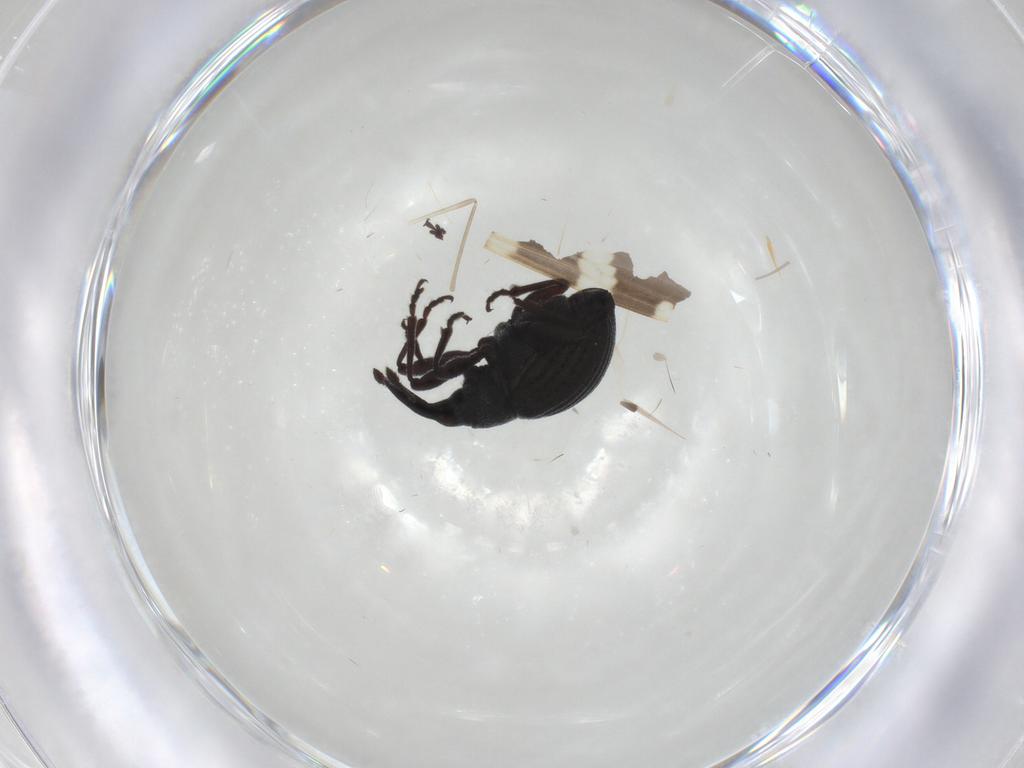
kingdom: Animalia
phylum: Arthropoda
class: Insecta
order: Coleoptera
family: Brentidae
